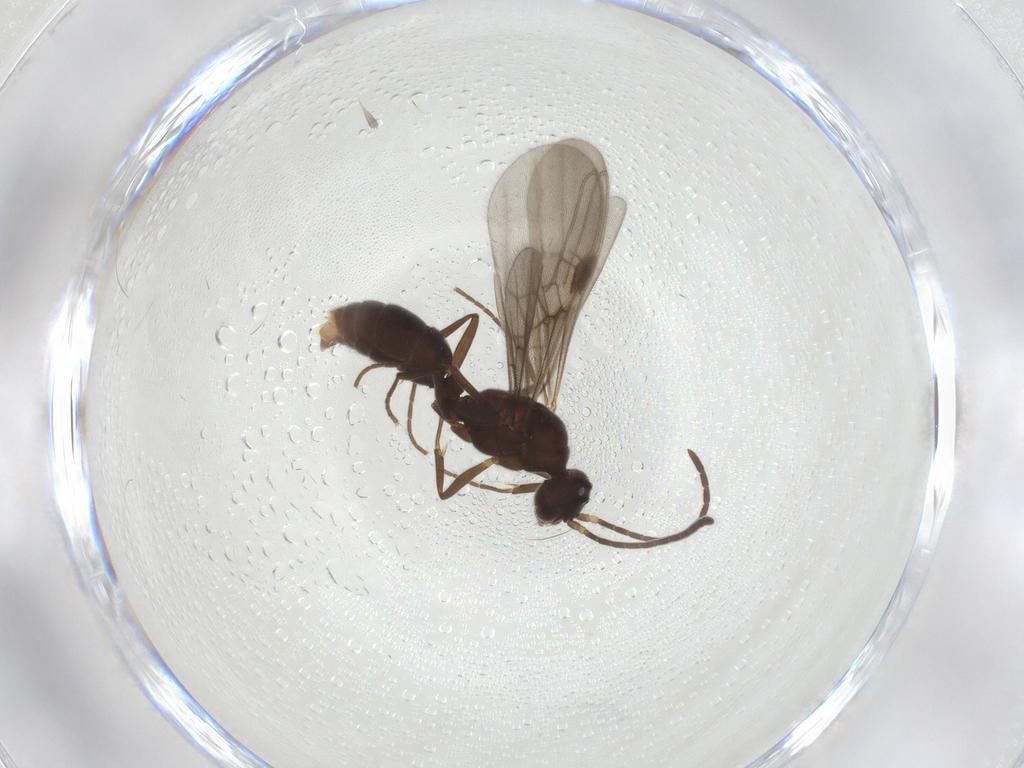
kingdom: Animalia
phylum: Arthropoda
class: Insecta
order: Hymenoptera
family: Formicidae
